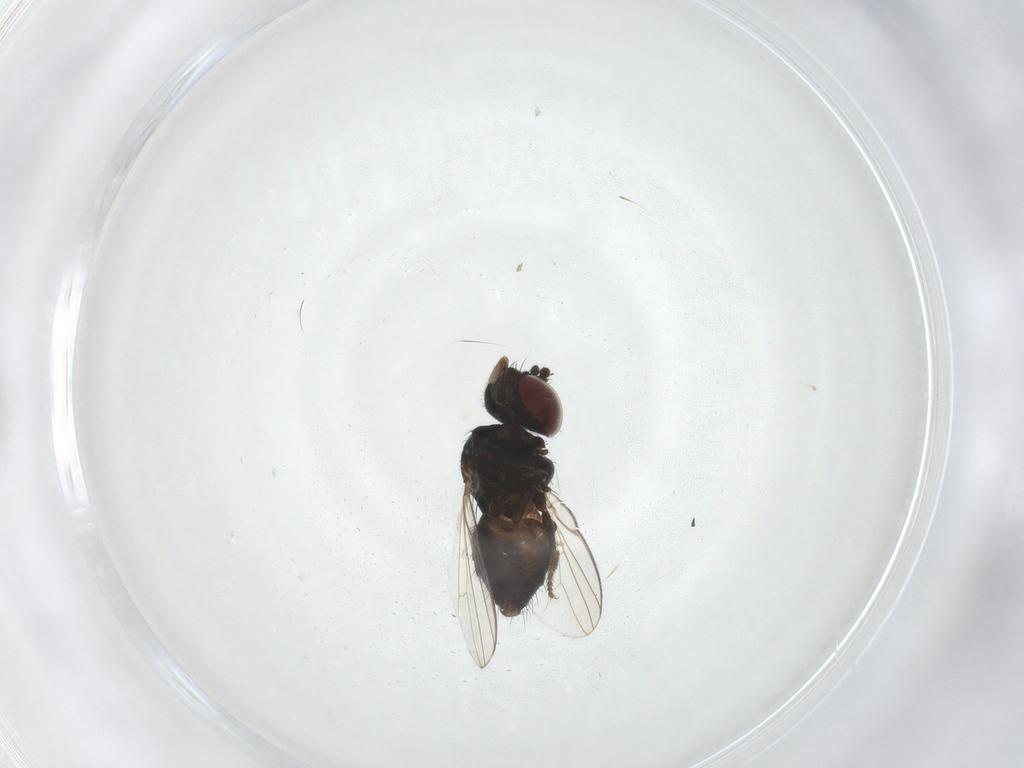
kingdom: Animalia
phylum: Arthropoda
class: Insecta
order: Diptera
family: Milichiidae
